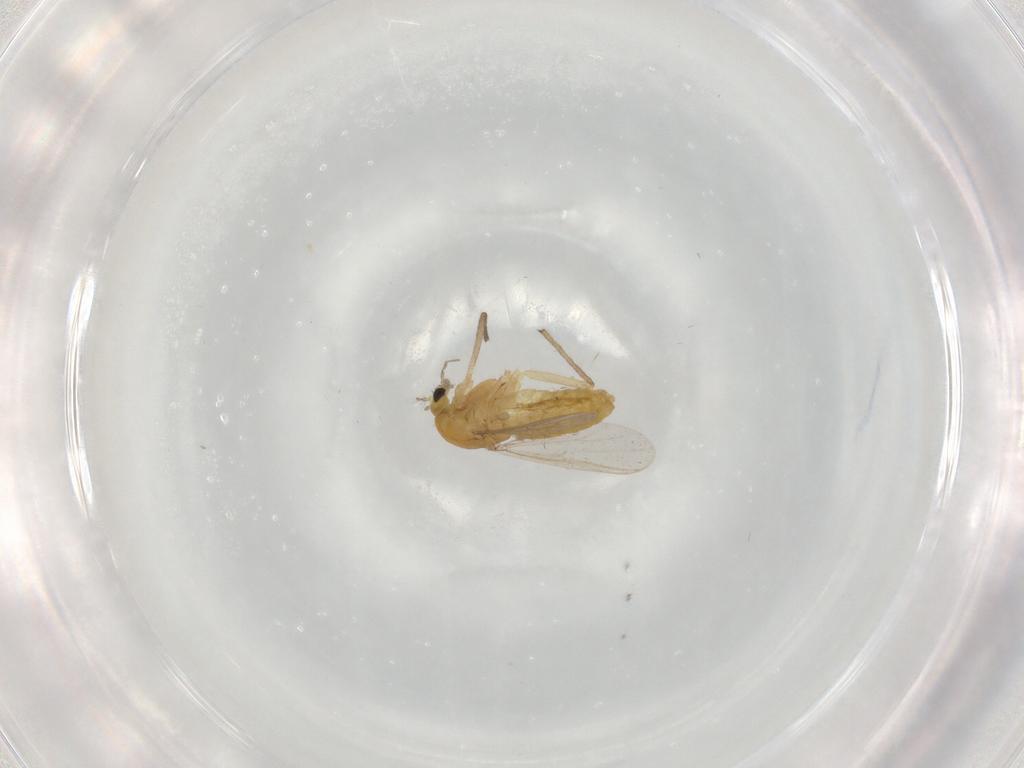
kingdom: Animalia
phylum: Arthropoda
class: Insecta
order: Diptera
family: Chironomidae
